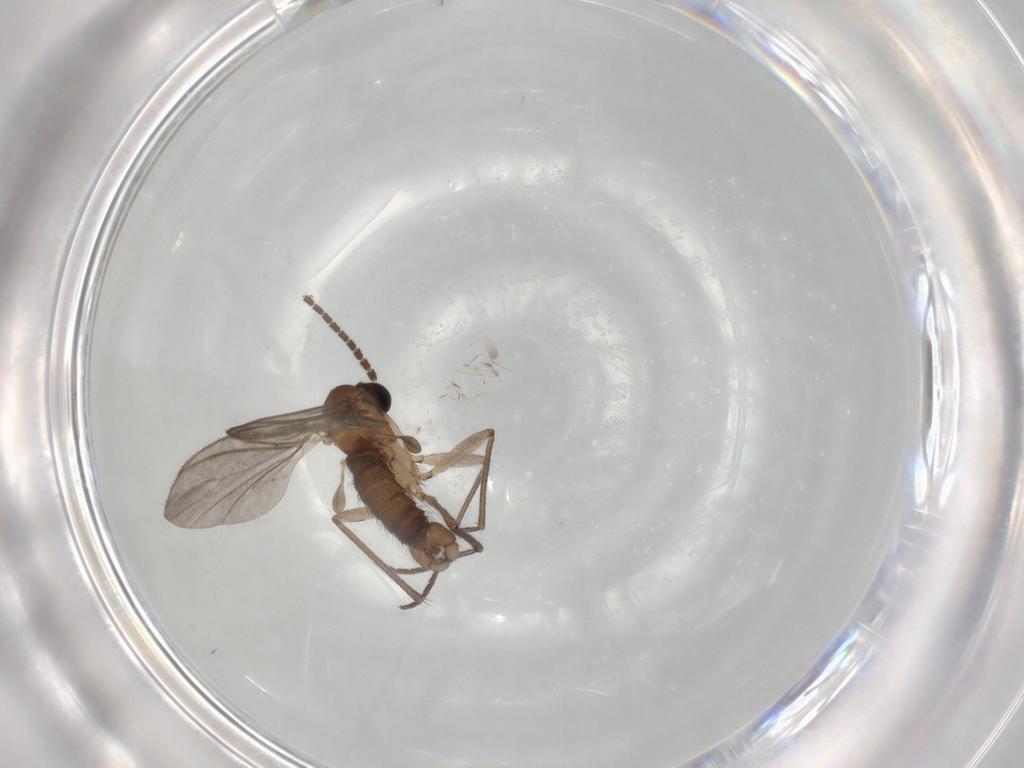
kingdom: Animalia
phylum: Arthropoda
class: Insecta
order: Diptera
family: Sciaridae
